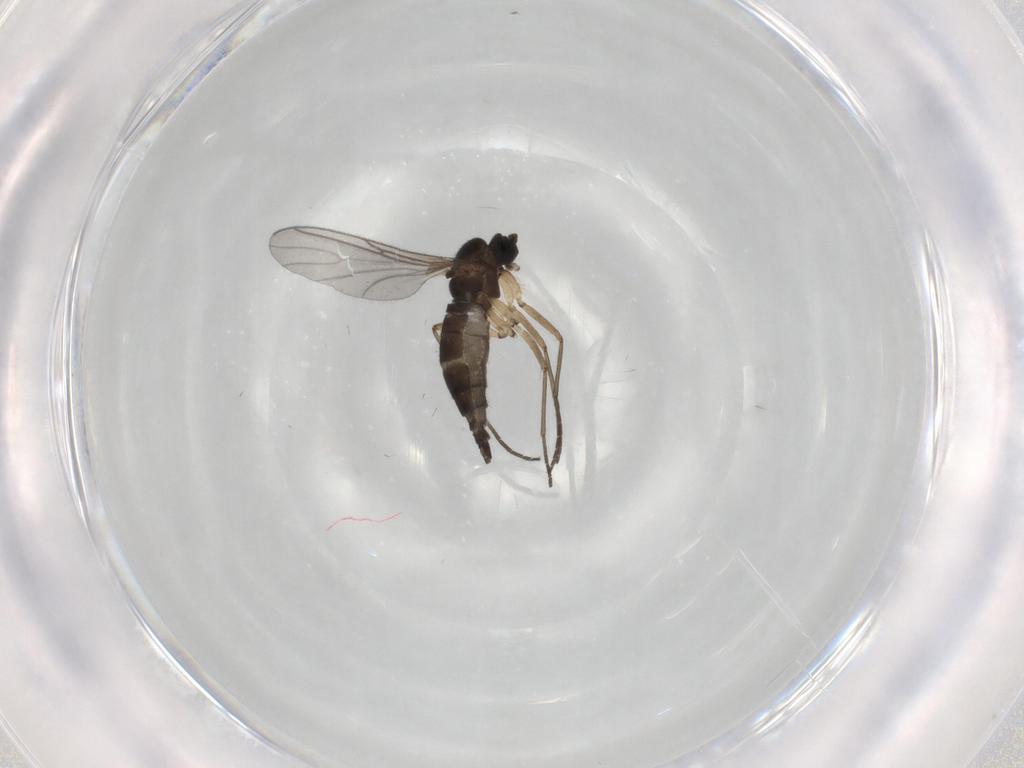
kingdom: Animalia
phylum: Arthropoda
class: Insecta
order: Diptera
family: Sciaridae
